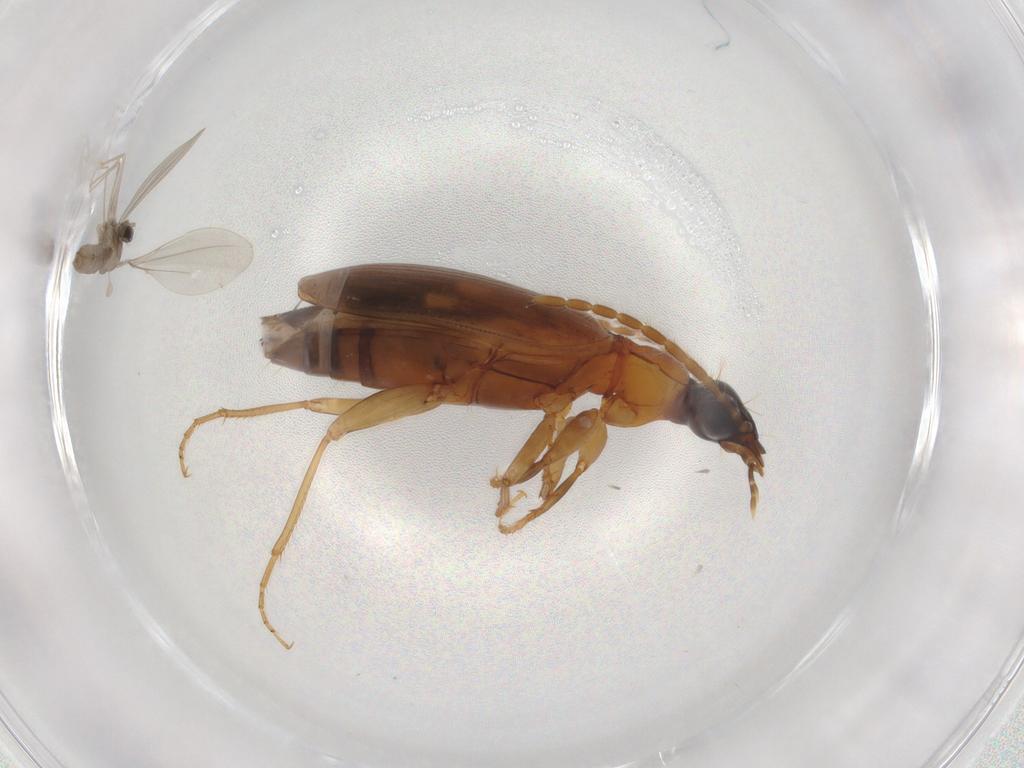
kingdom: Animalia
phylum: Arthropoda
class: Insecta
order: Coleoptera
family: Carabidae
